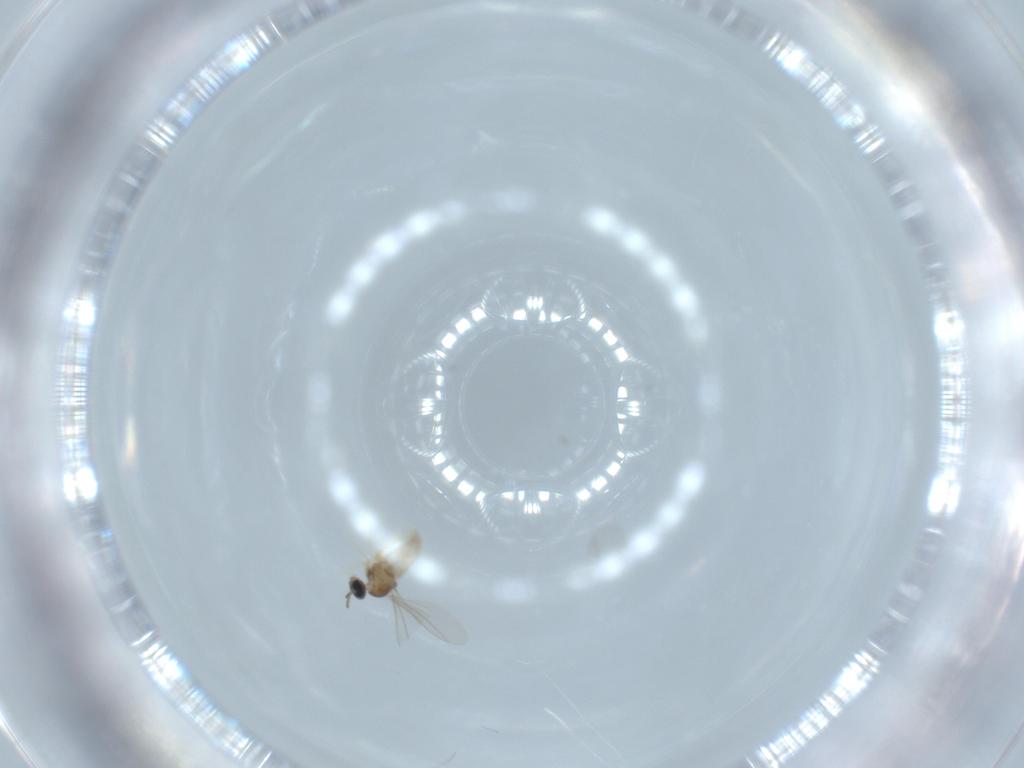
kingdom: Animalia
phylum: Arthropoda
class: Insecta
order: Diptera
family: Cecidomyiidae
